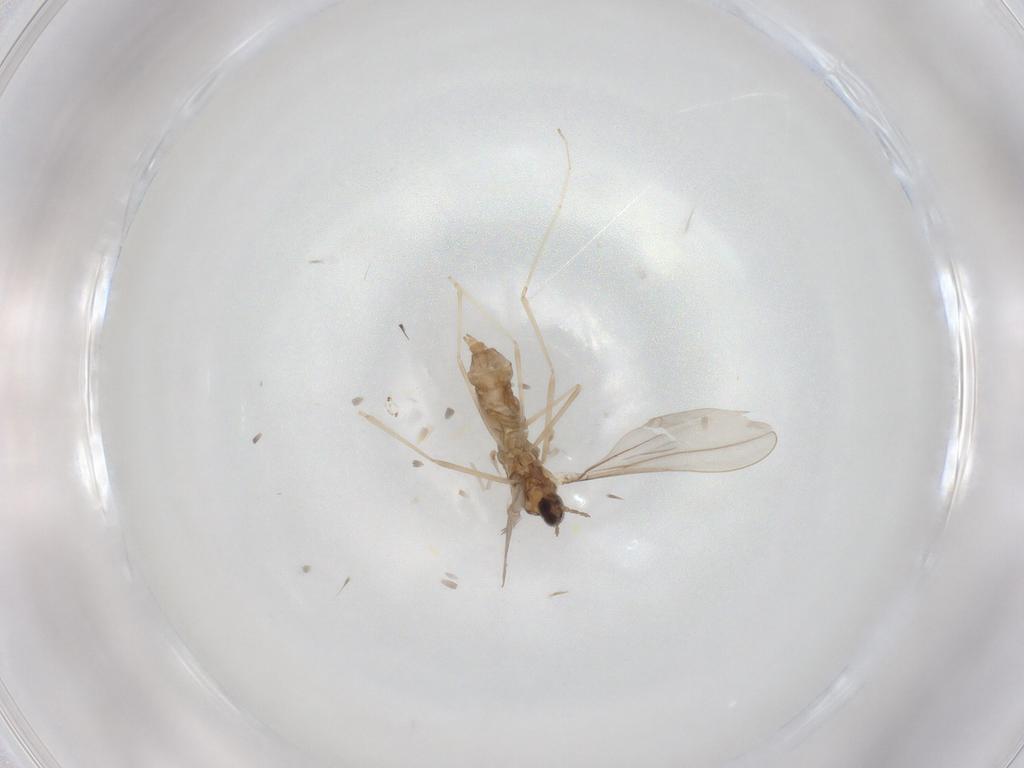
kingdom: Animalia
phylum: Arthropoda
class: Insecta
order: Diptera
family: Cecidomyiidae
